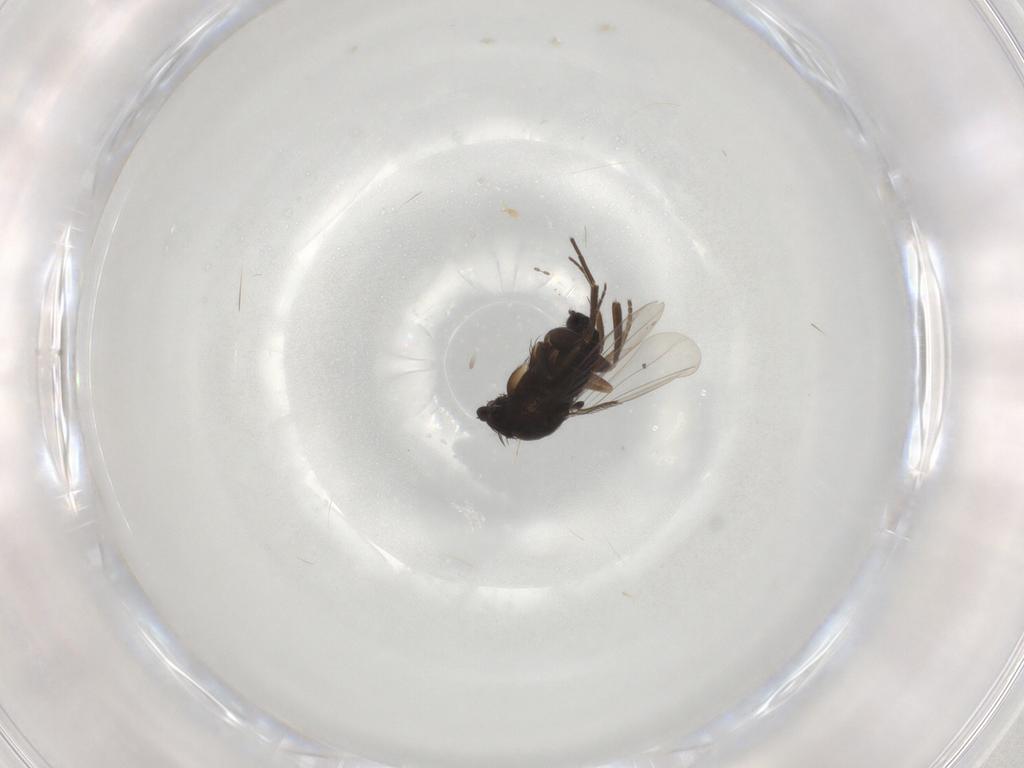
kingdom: Animalia
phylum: Arthropoda
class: Insecta
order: Diptera
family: Phoridae
